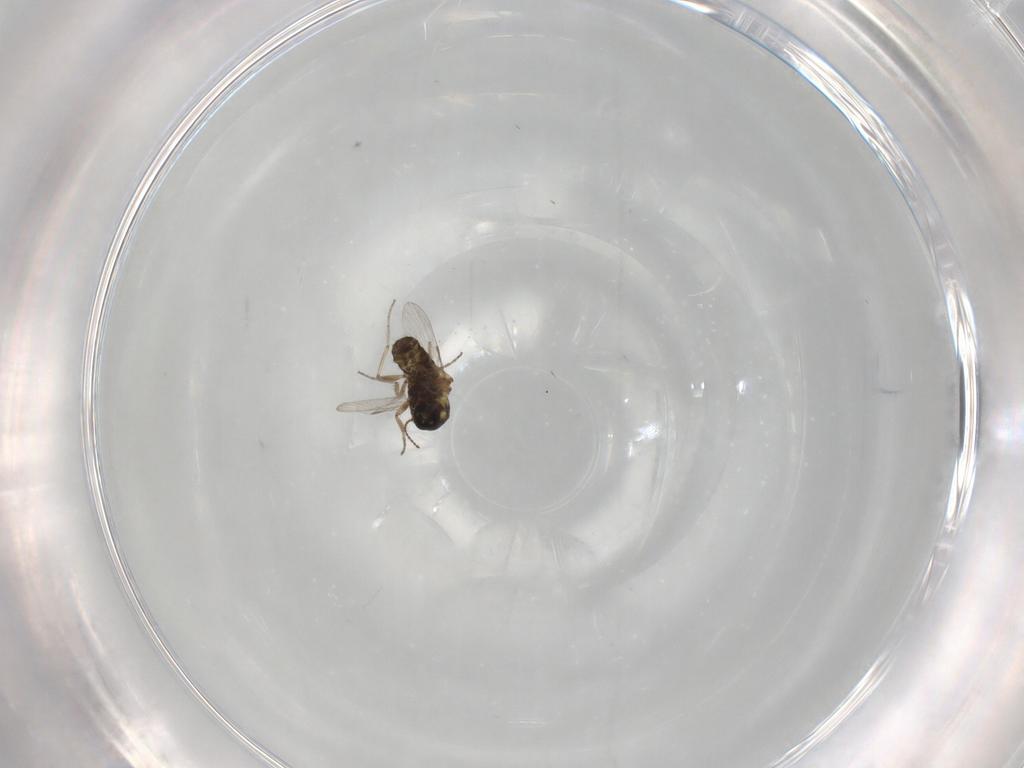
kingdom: Animalia
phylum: Arthropoda
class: Insecta
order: Diptera
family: Ceratopogonidae
